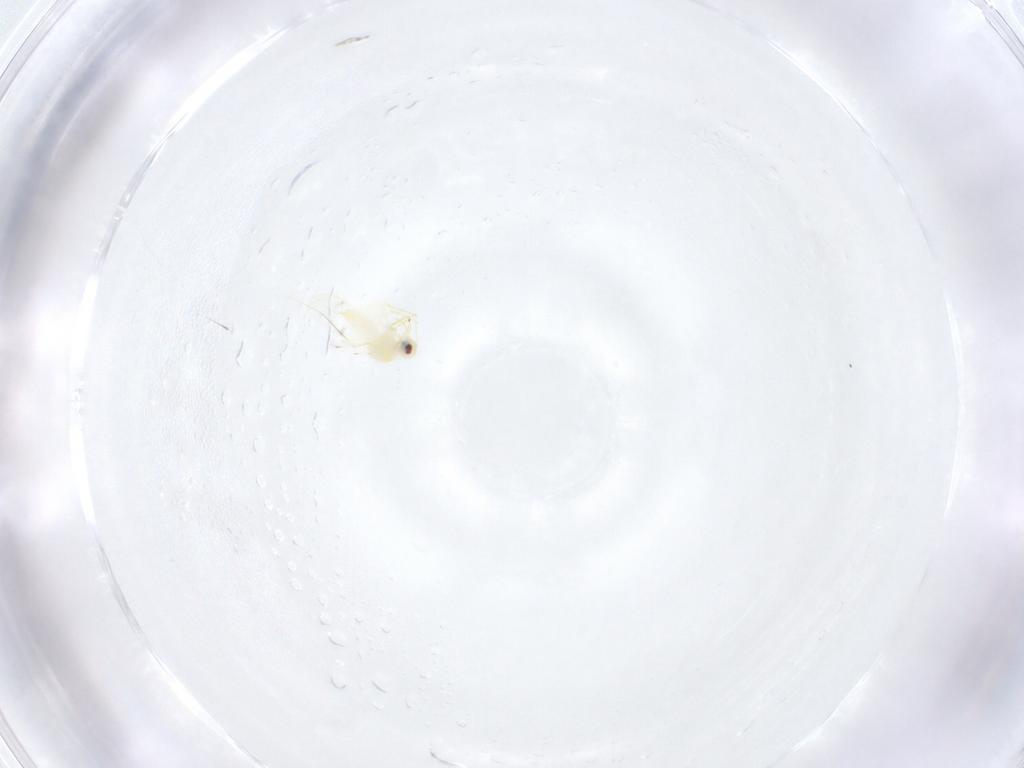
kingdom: Animalia
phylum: Arthropoda
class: Insecta
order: Hemiptera
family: Aleyrodidae
